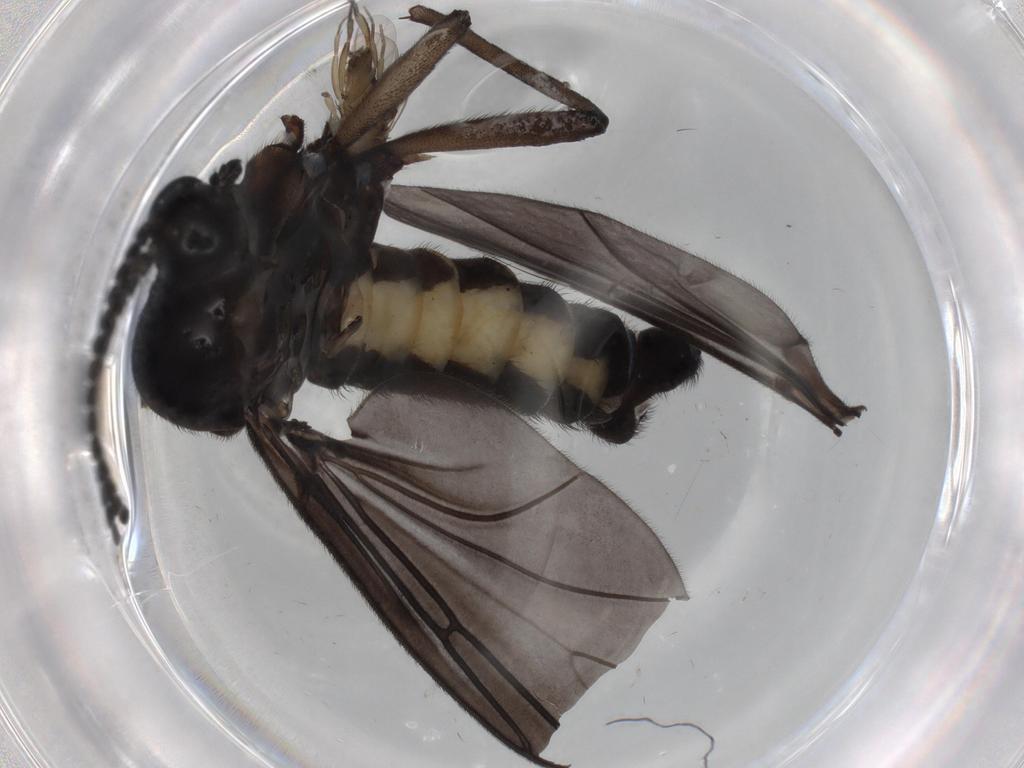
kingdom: Animalia
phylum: Arthropoda
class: Insecta
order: Diptera
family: Sciaridae
